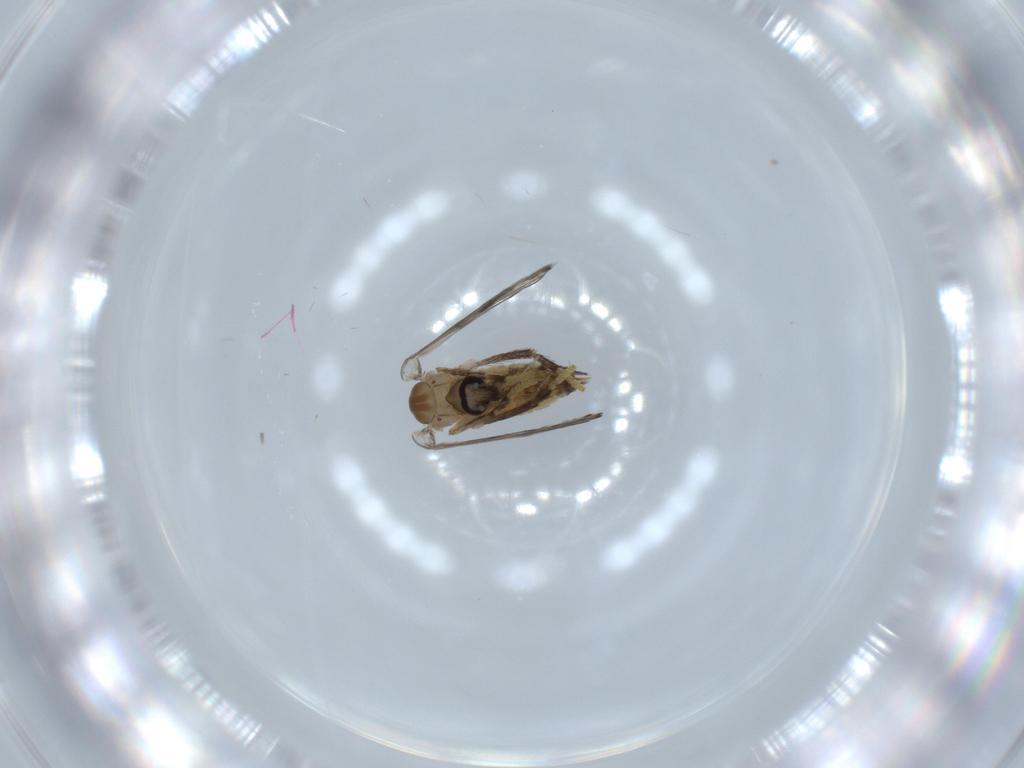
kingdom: Animalia
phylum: Arthropoda
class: Insecta
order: Diptera
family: Psychodidae
